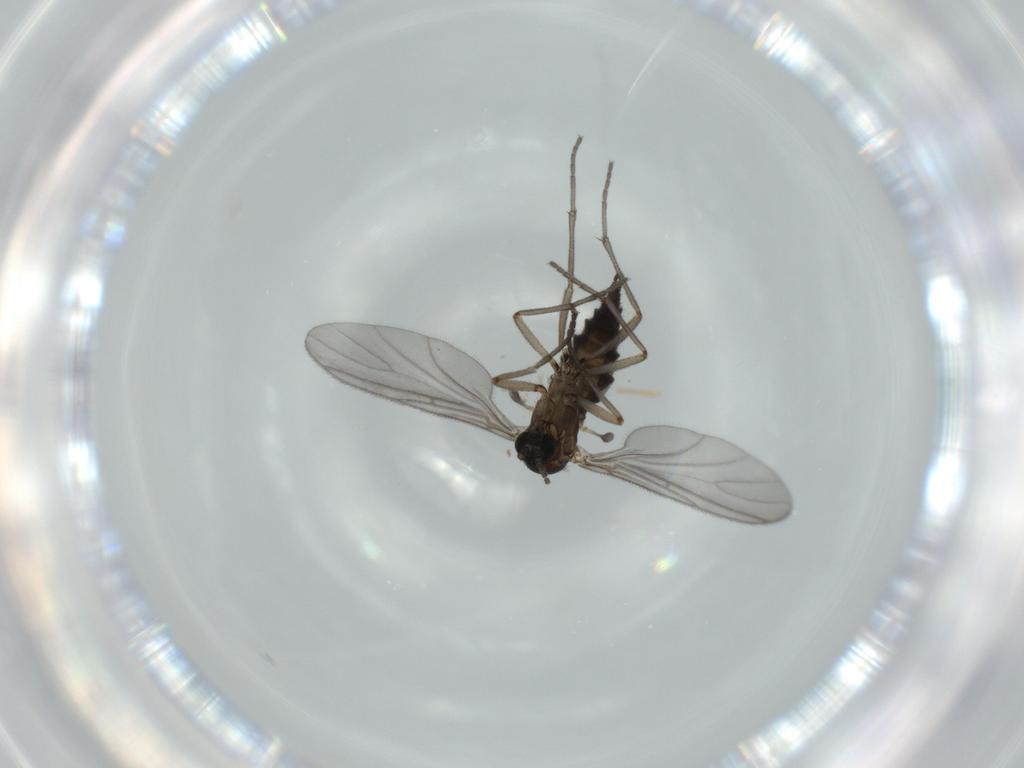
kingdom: Animalia
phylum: Arthropoda
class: Insecta
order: Diptera
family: Sciaridae
